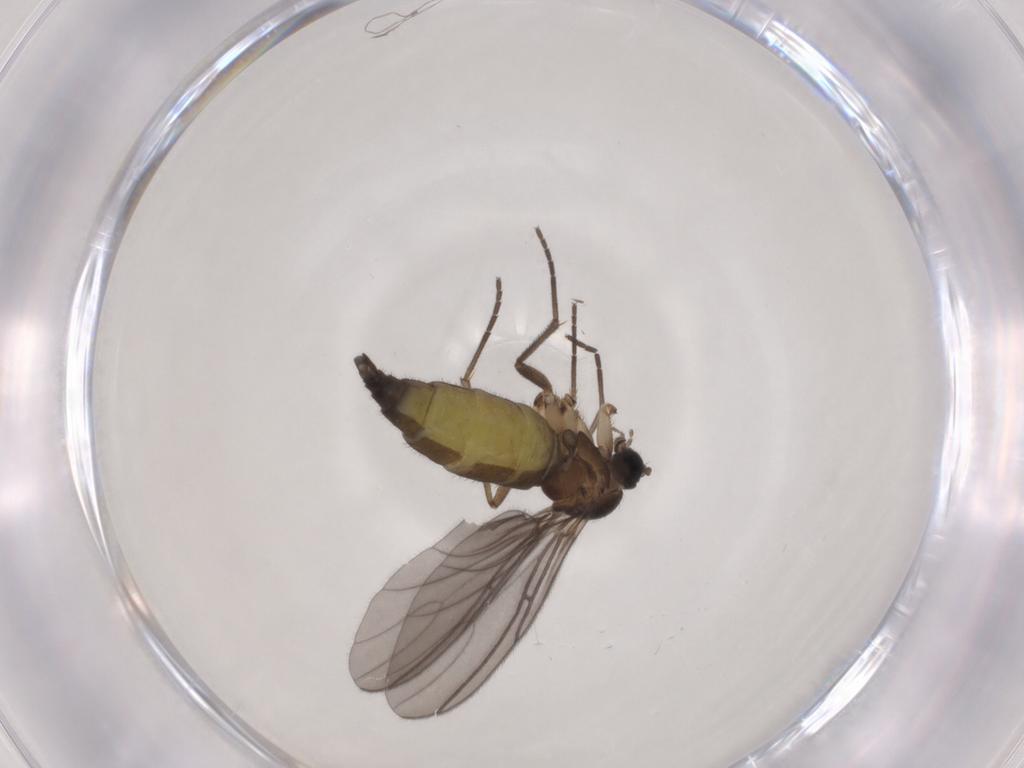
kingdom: Animalia
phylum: Arthropoda
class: Insecta
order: Diptera
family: Sciaridae
